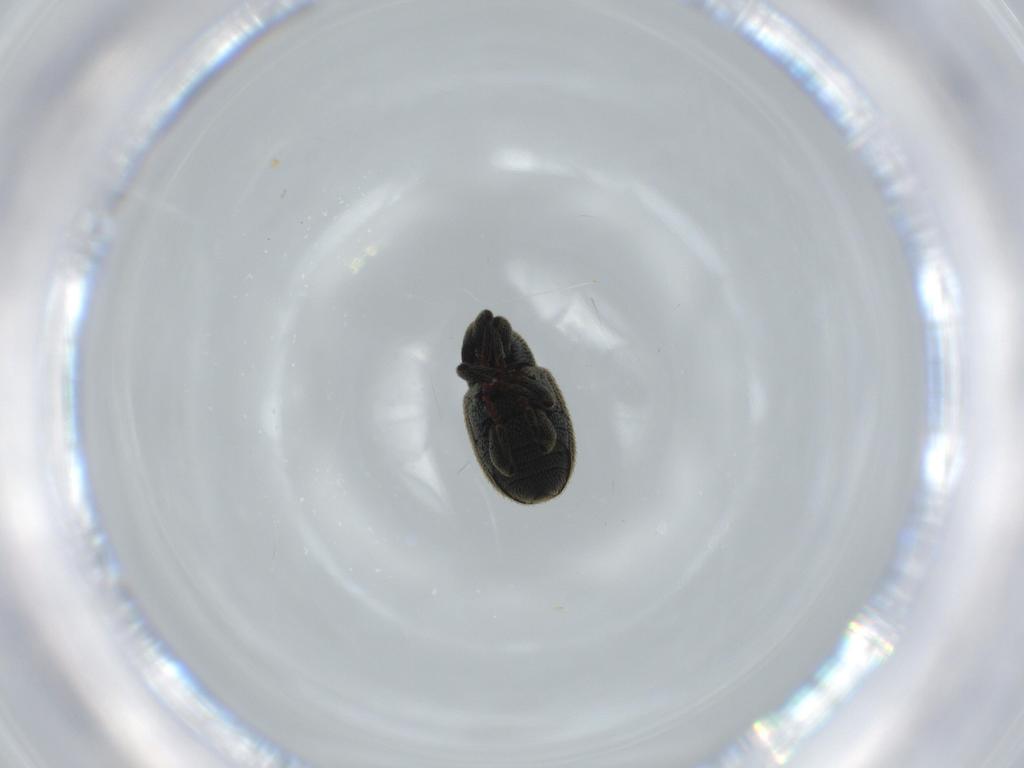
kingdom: Animalia
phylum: Arthropoda
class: Insecta
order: Coleoptera
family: Curculionidae
